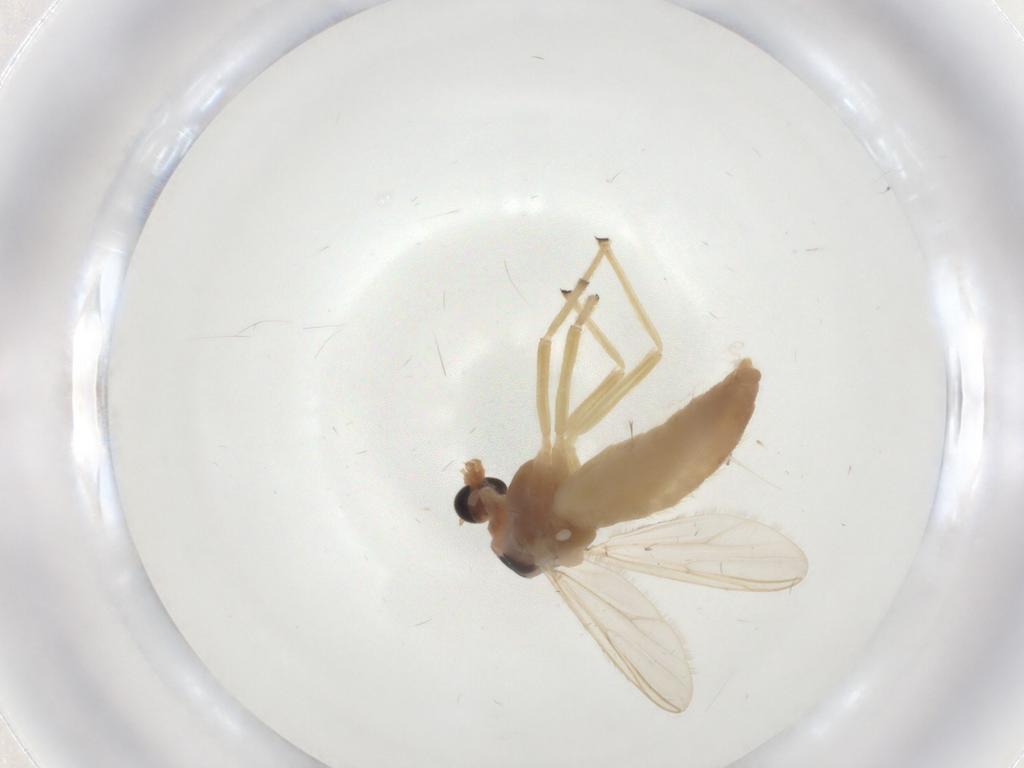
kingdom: Animalia
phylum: Arthropoda
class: Insecta
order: Diptera
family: Chironomidae
